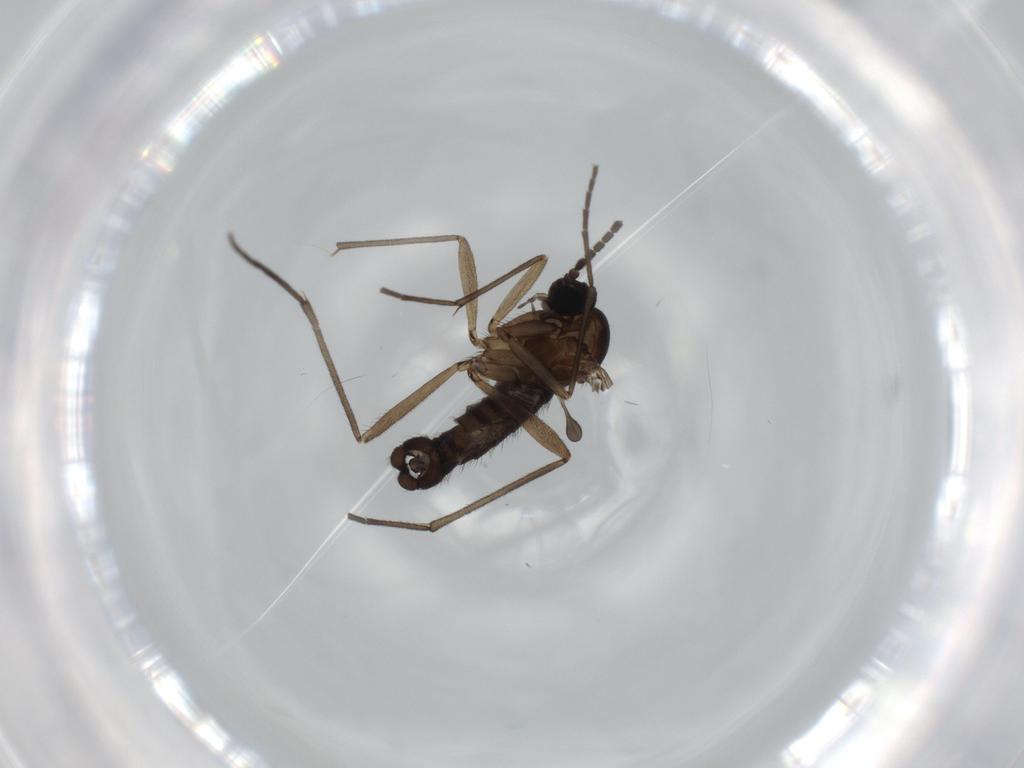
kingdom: Animalia
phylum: Arthropoda
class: Insecta
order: Diptera
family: Sciaridae
